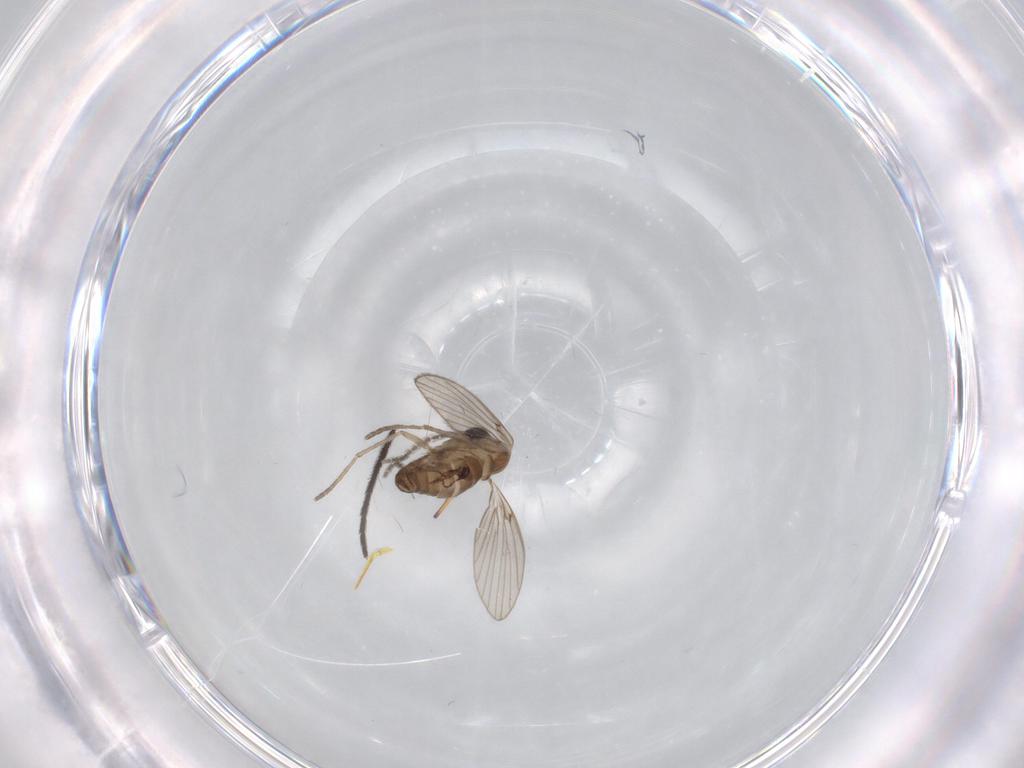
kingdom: Animalia
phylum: Arthropoda
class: Insecta
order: Diptera
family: Psychodidae
